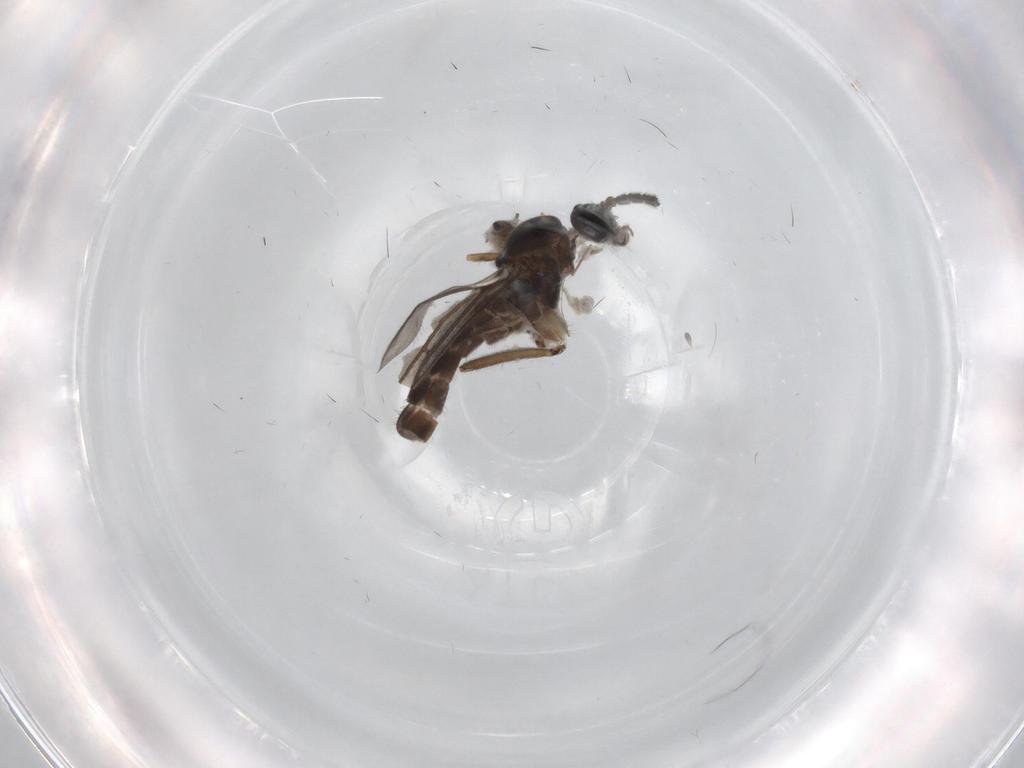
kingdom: Animalia
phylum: Arthropoda
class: Insecta
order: Diptera
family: Sciaridae
